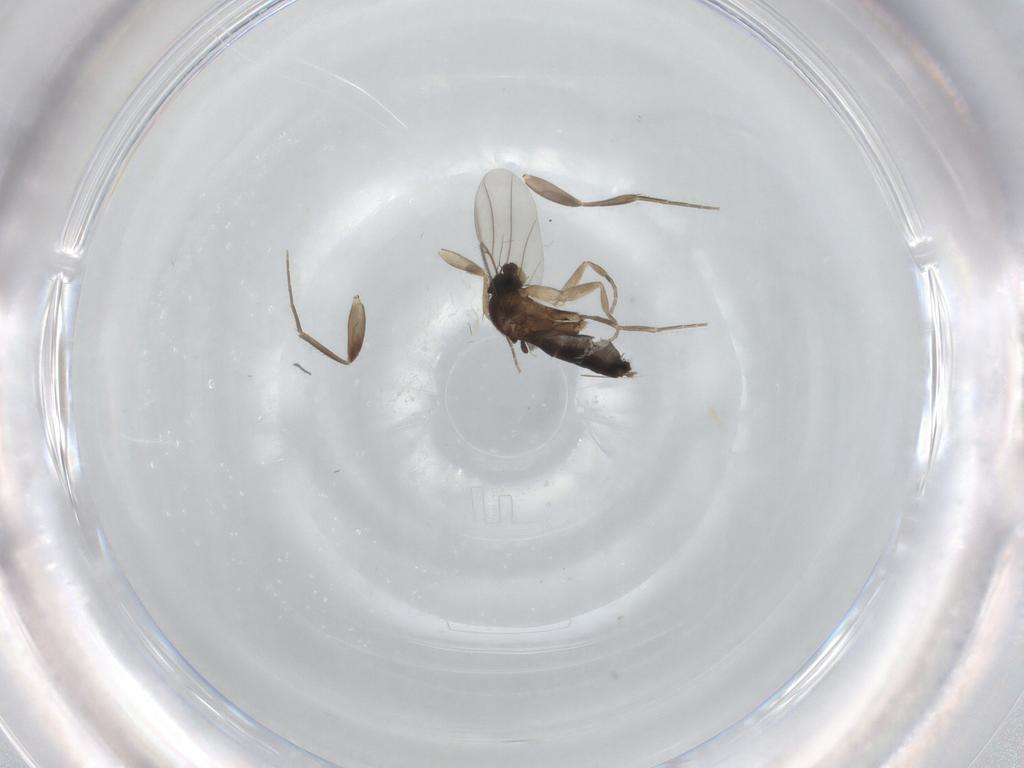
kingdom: Animalia
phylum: Arthropoda
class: Insecta
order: Diptera
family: Phoridae
